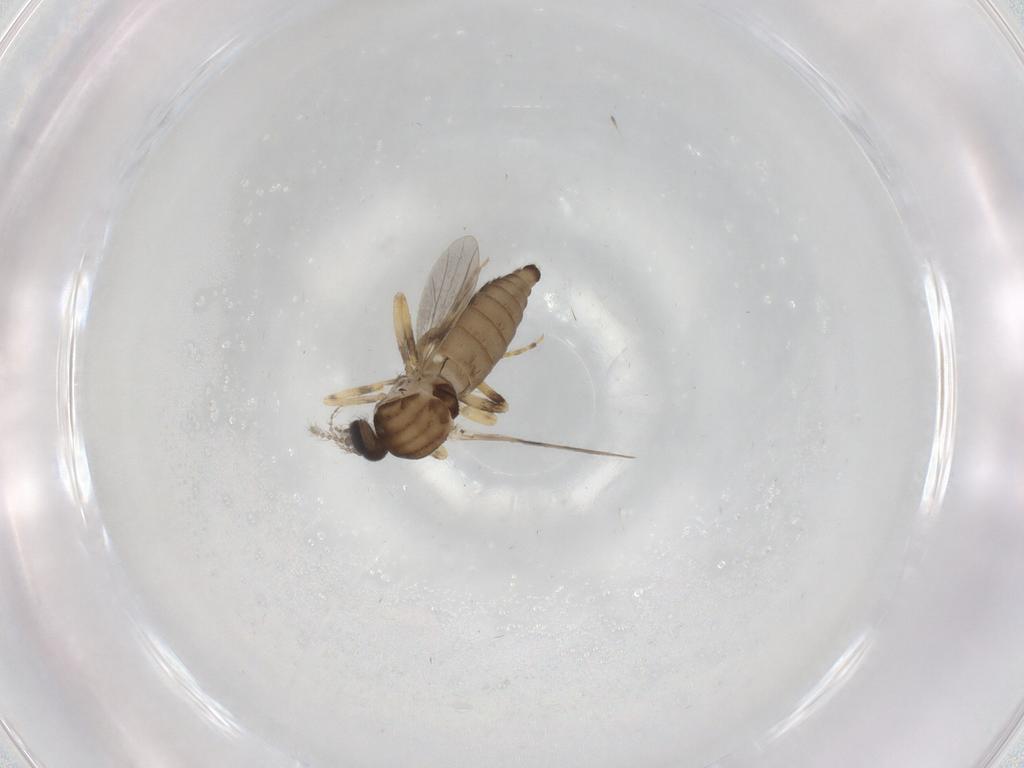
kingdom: Animalia
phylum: Arthropoda
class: Insecta
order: Diptera
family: Ceratopogonidae
